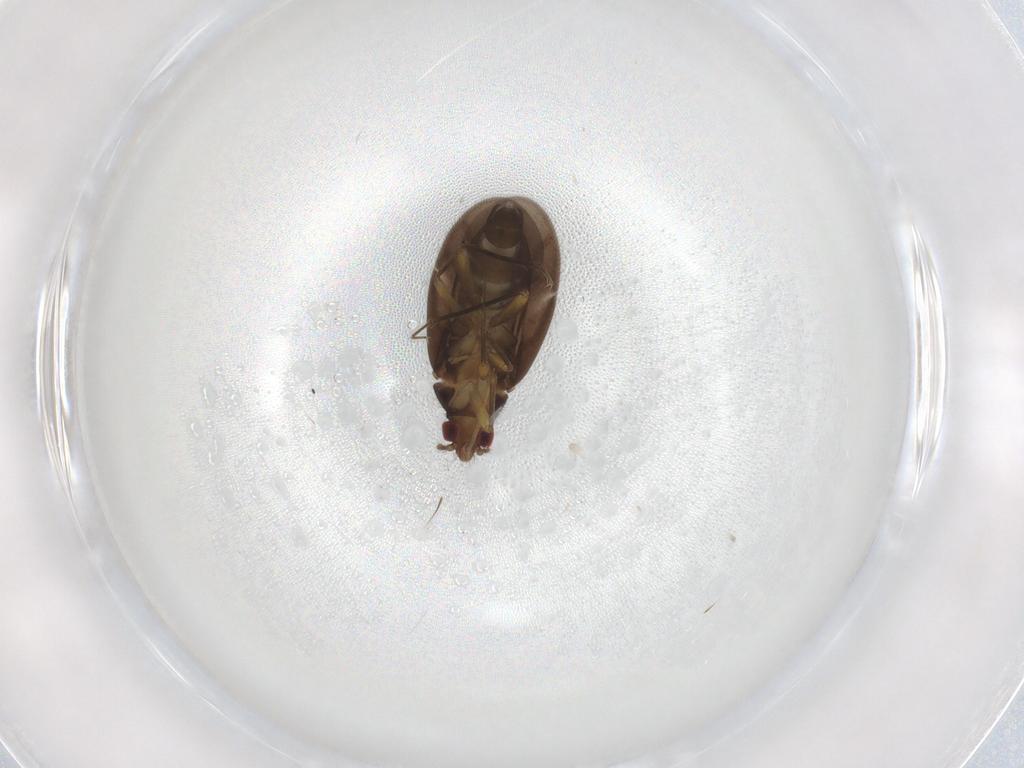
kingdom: Animalia
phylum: Arthropoda
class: Insecta
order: Hemiptera
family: Ceratocombidae
